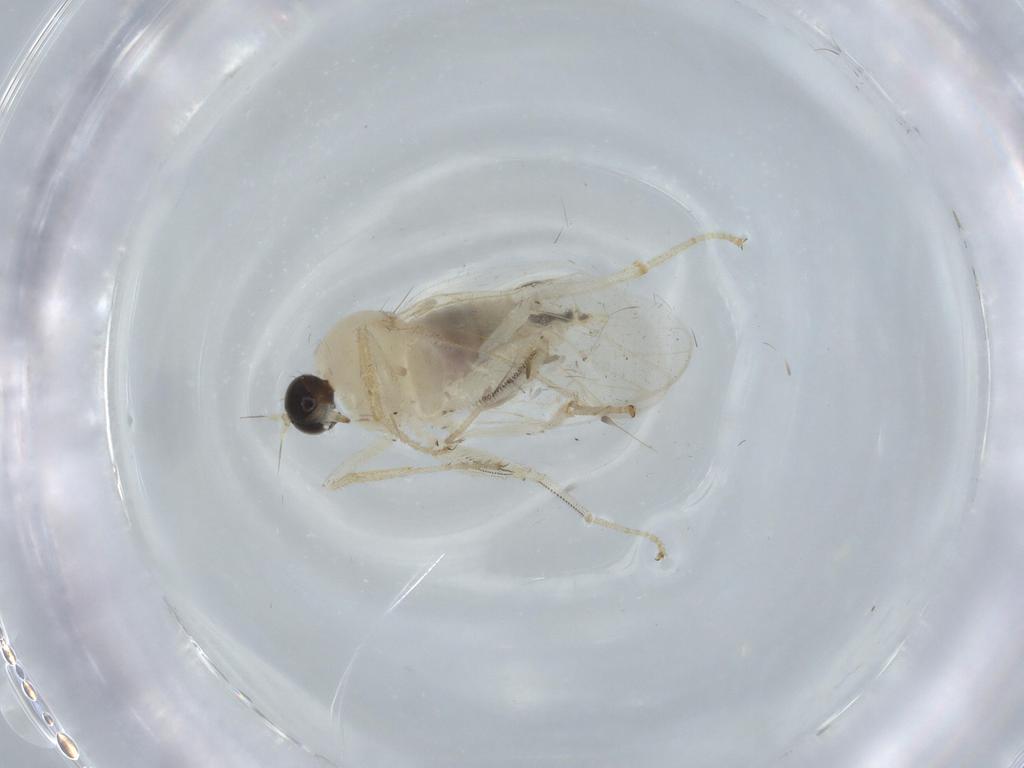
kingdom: Animalia
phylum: Arthropoda
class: Insecta
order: Diptera
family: Hybotidae
